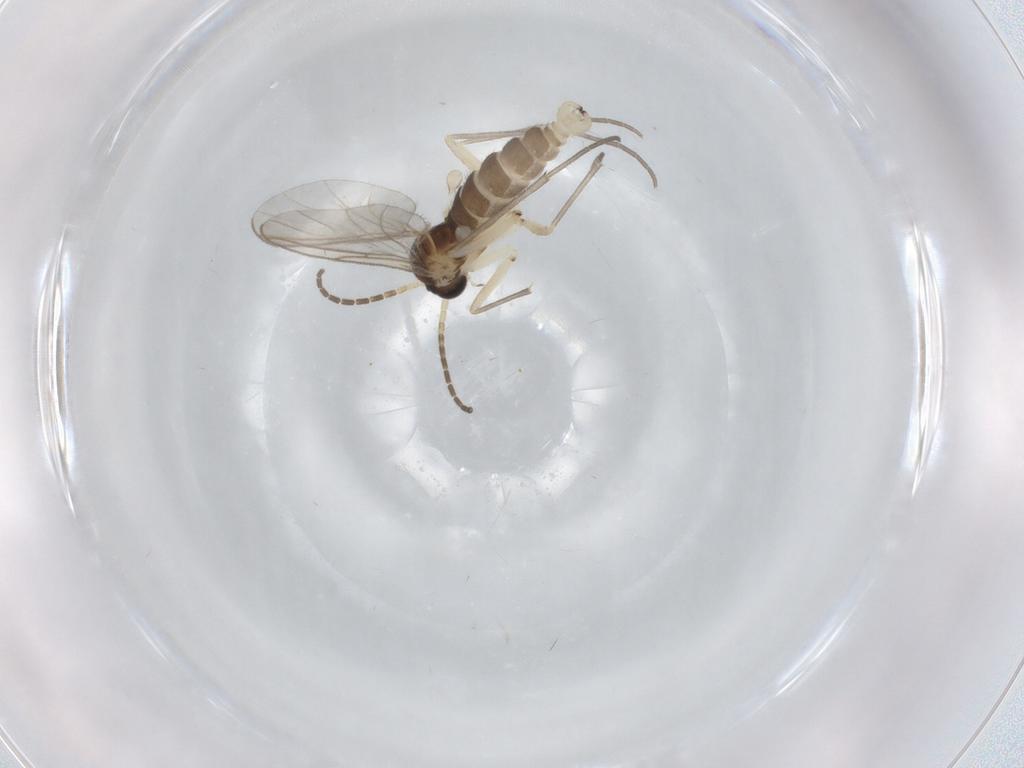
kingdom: Animalia
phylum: Arthropoda
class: Insecta
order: Diptera
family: Sciaridae
